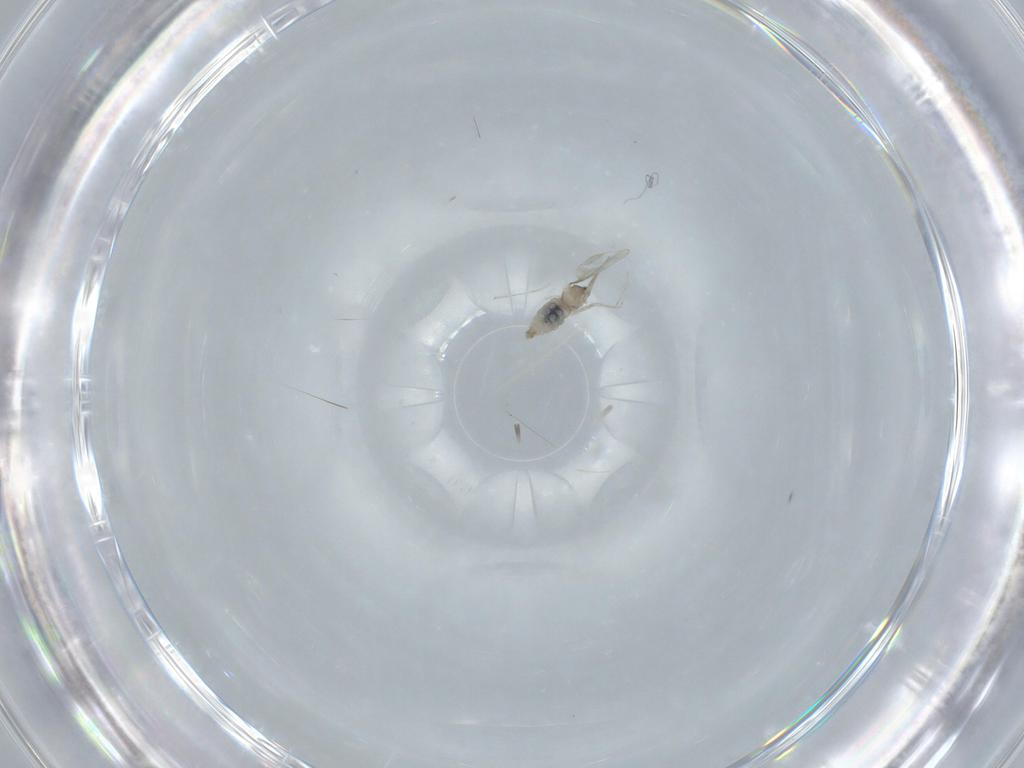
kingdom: Animalia
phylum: Arthropoda
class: Insecta
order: Diptera
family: Cecidomyiidae
